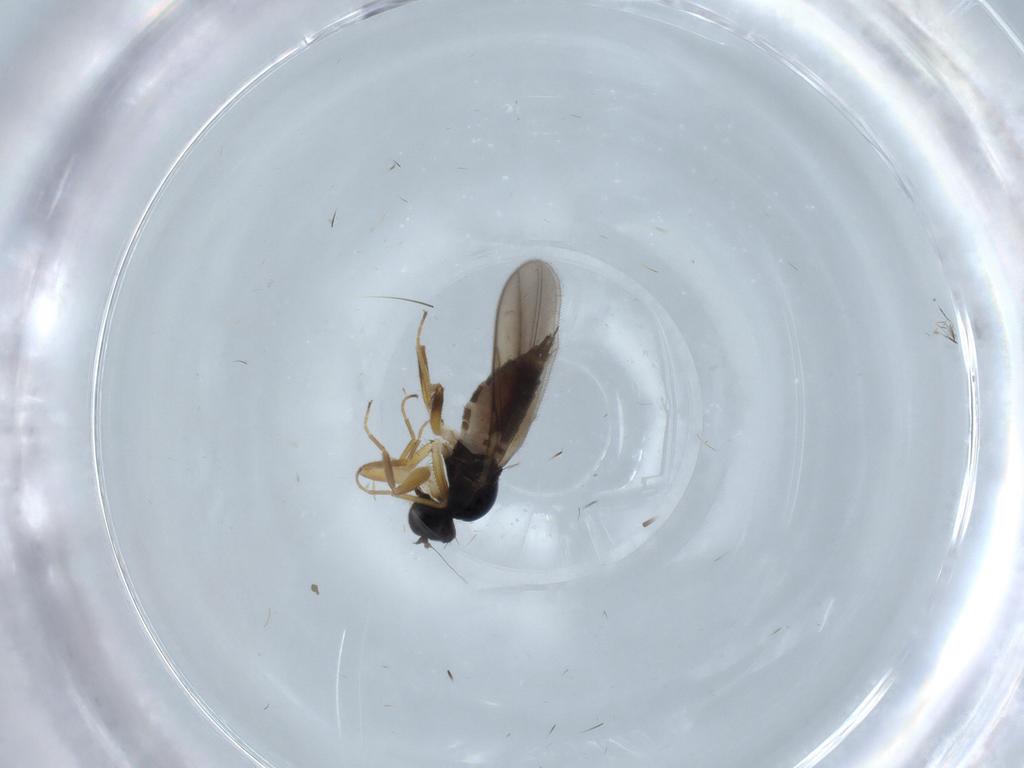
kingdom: Animalia
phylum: Arthropoda
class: Insecta
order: Diptera
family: Hybotidae
